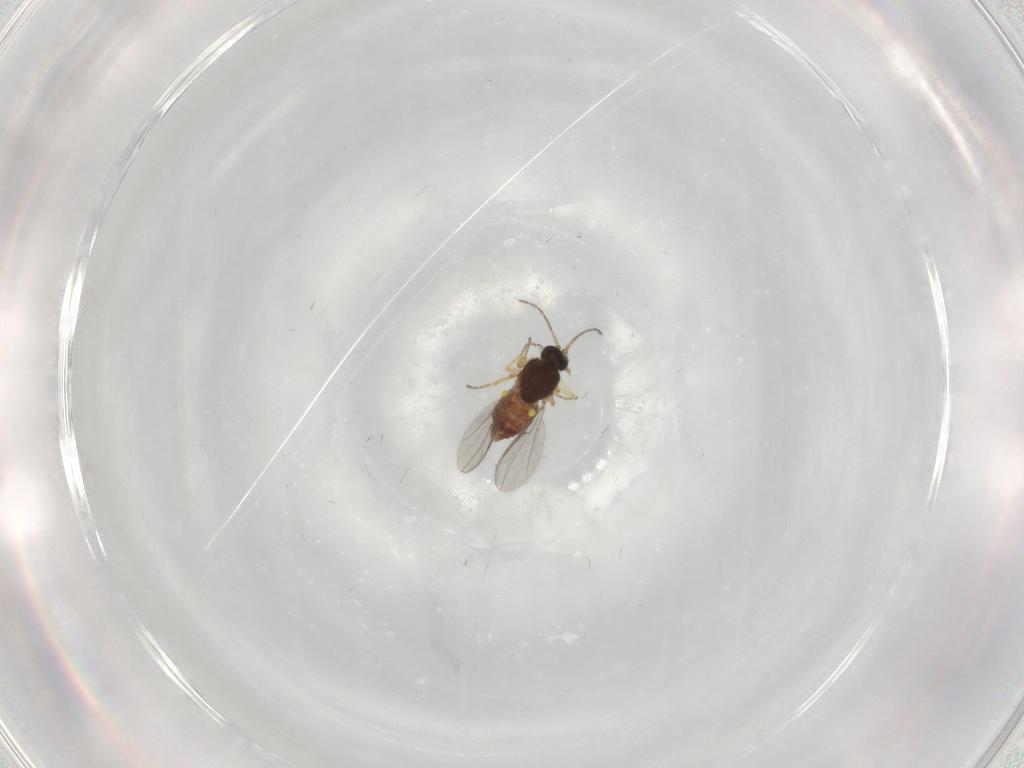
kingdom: Animalia
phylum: Arthropoda
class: Insecta
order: Diptera
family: Ceratopogonidae
